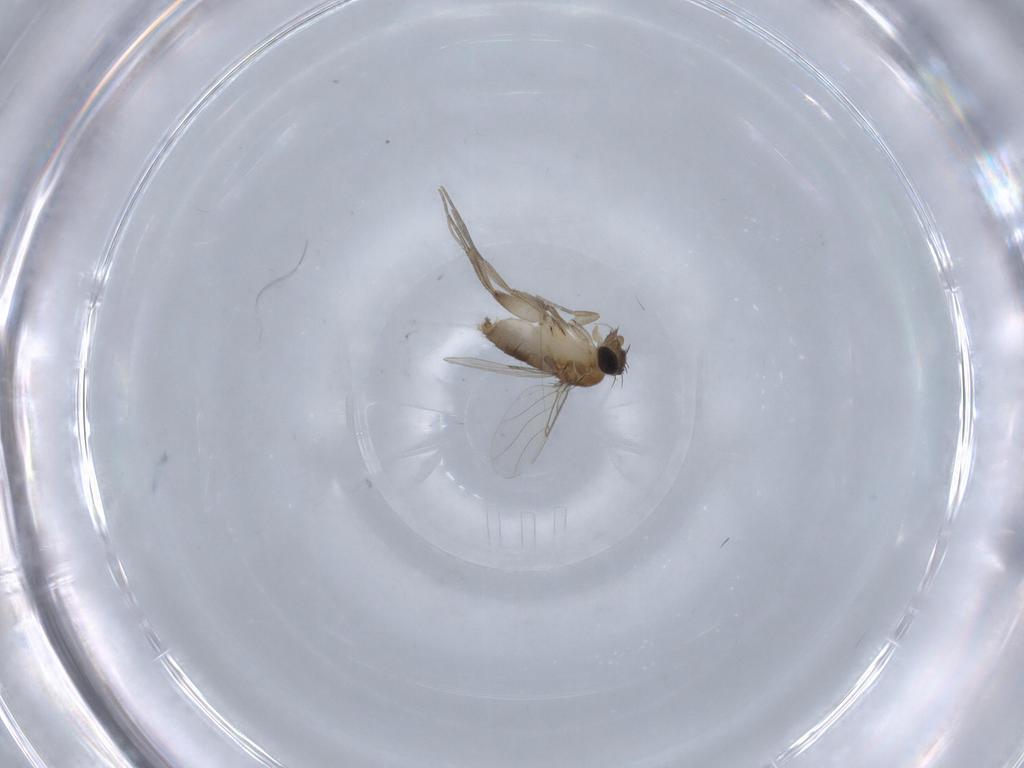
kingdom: Animalia
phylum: Arthropoda
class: Insecta
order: Diptera
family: Phoridae
